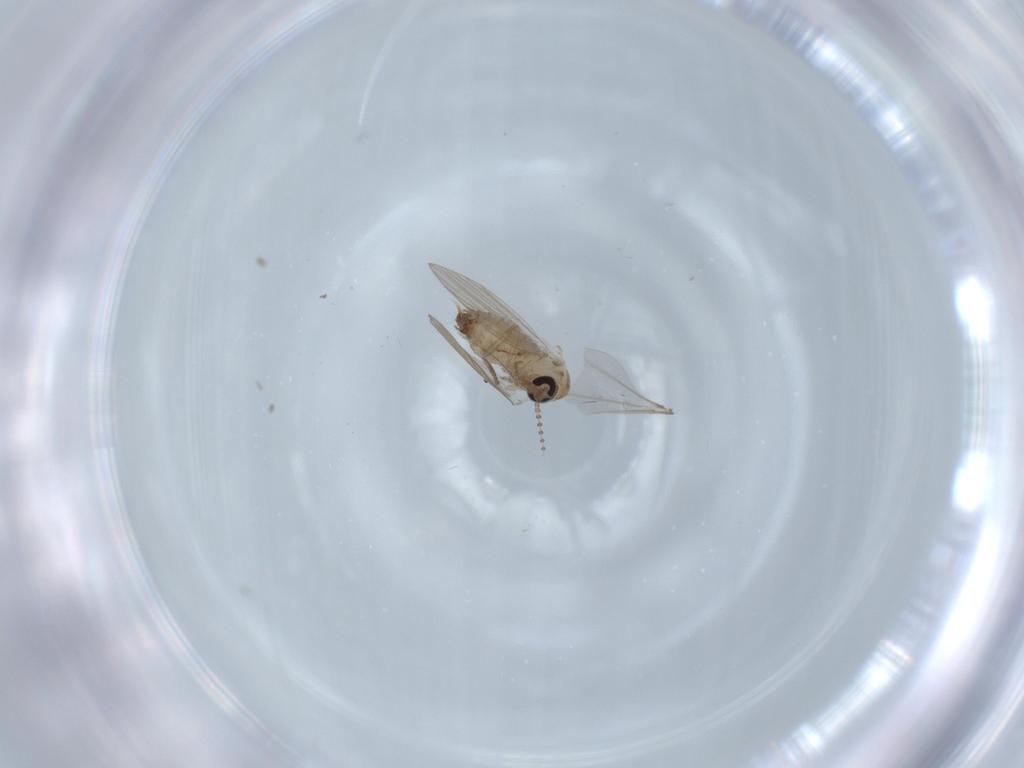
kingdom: Animalia
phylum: Arthropoda
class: Insecta
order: Diptera
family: Psychodidae
